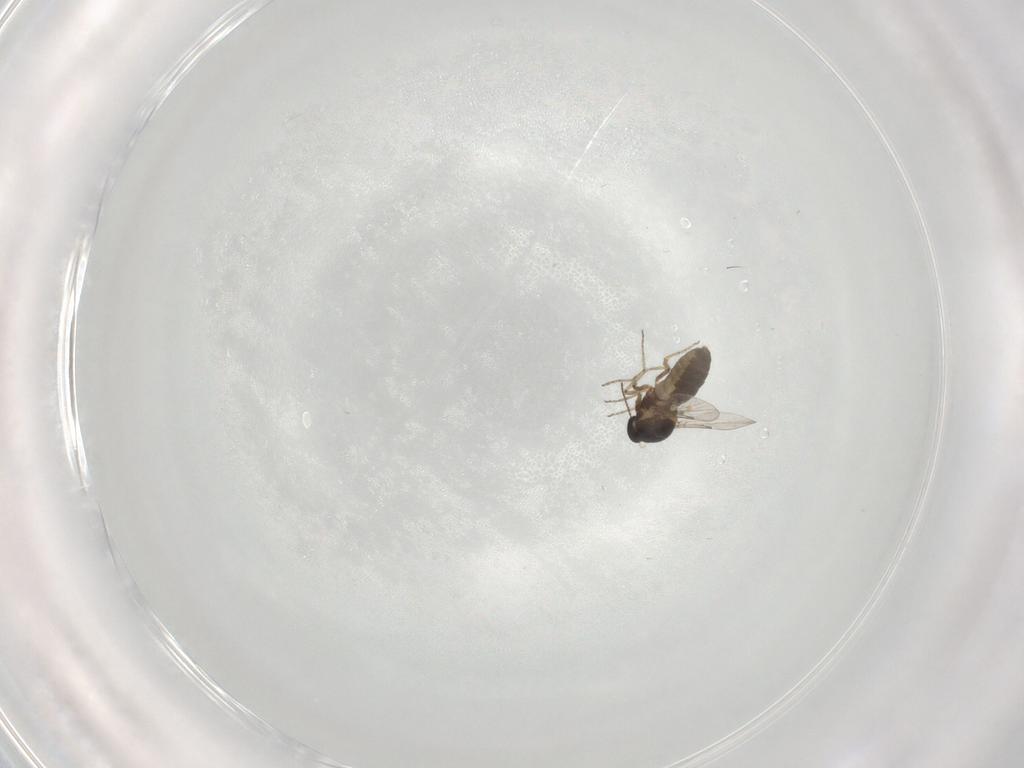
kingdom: Animalia
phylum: Arthropoda
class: Insecta
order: Diptera
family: Ceratopogonidae
